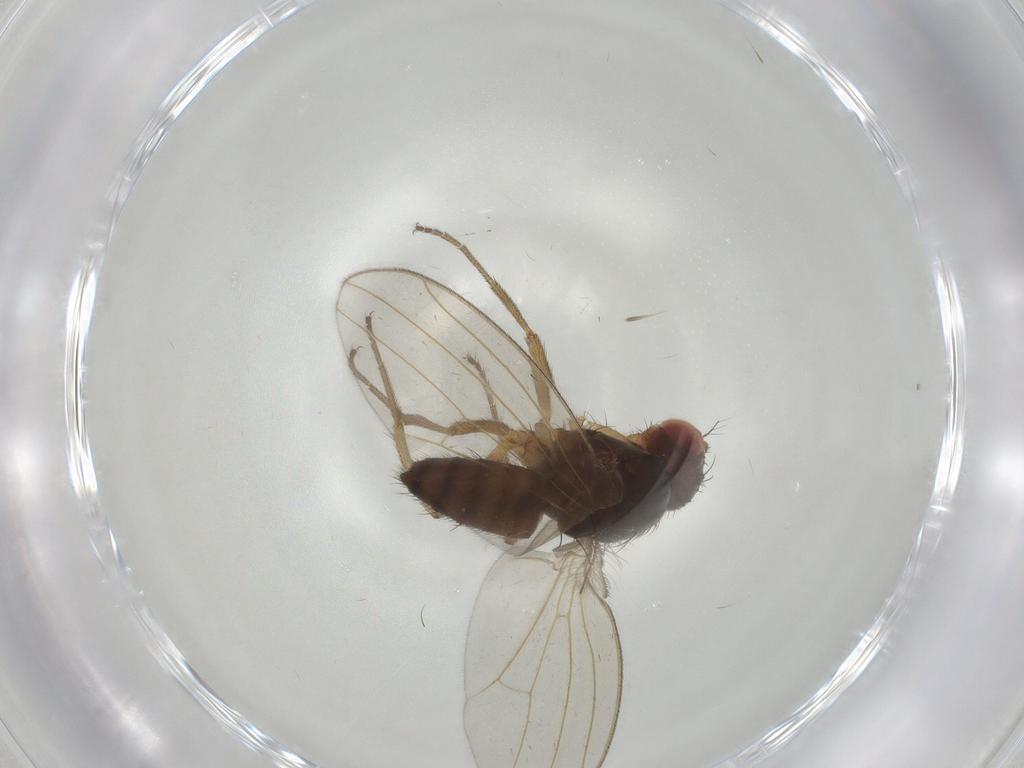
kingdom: Animalia
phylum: Arthropoda
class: Insecta
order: Diptera
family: Drosophilidae
